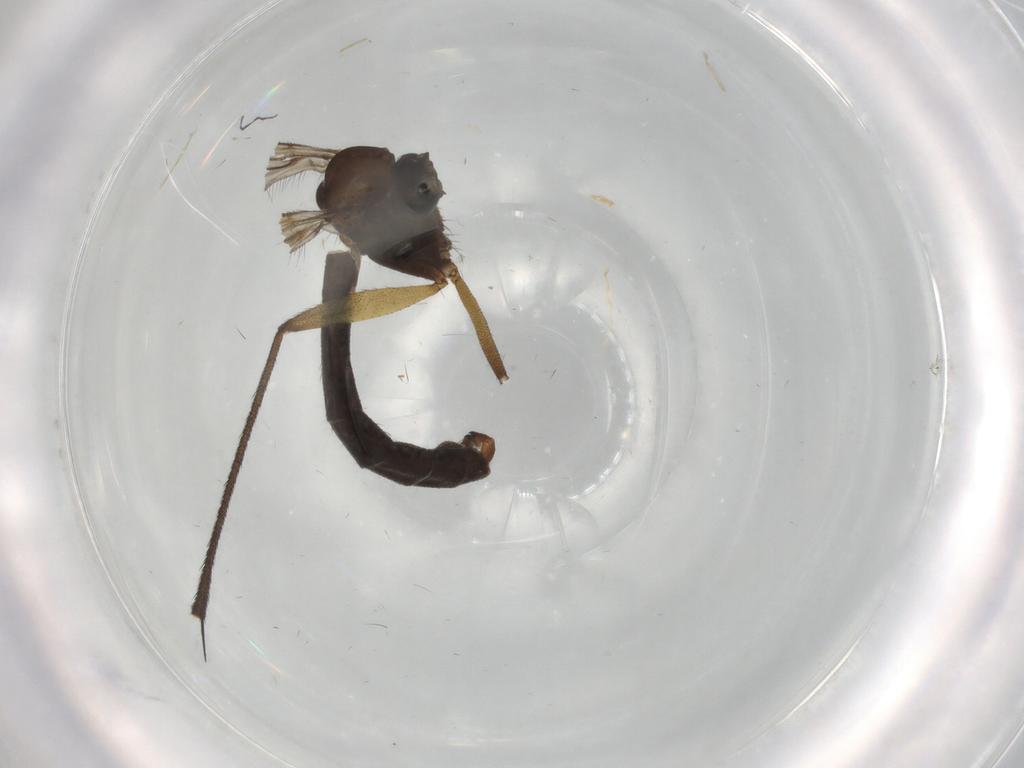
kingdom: Animalia
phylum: Arthropoda
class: Insecta
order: Diptera
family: Ditomyiidae
